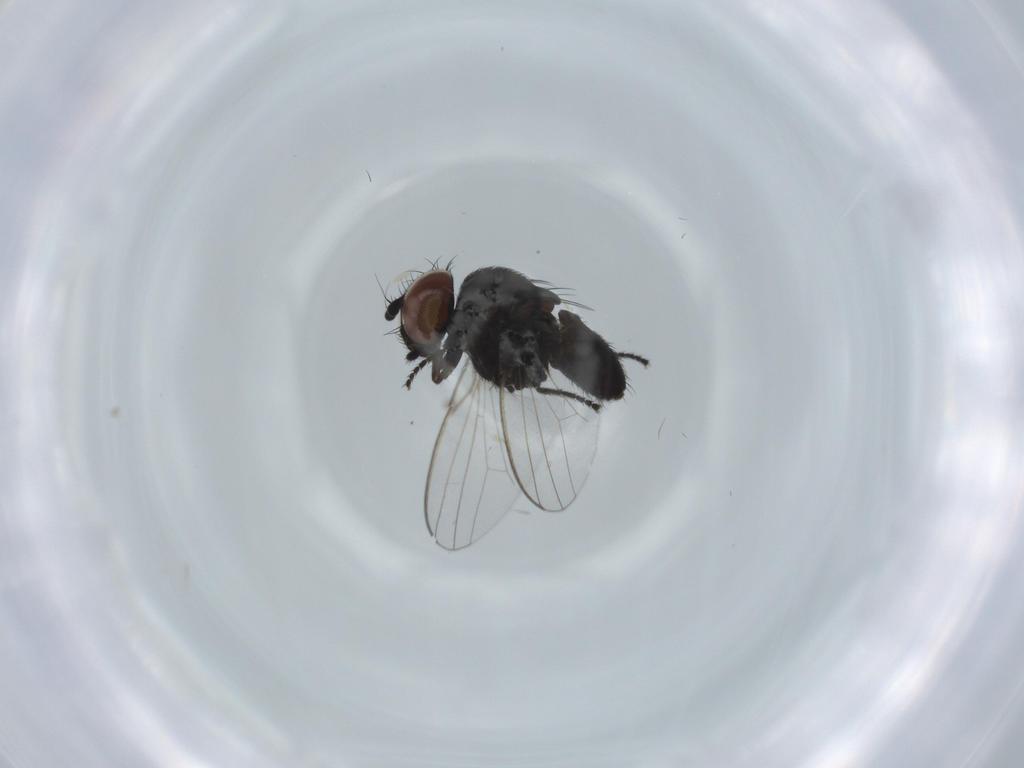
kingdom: Animalia
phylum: Arthropoda
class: Insecta
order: Diptera
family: Milichiidae
